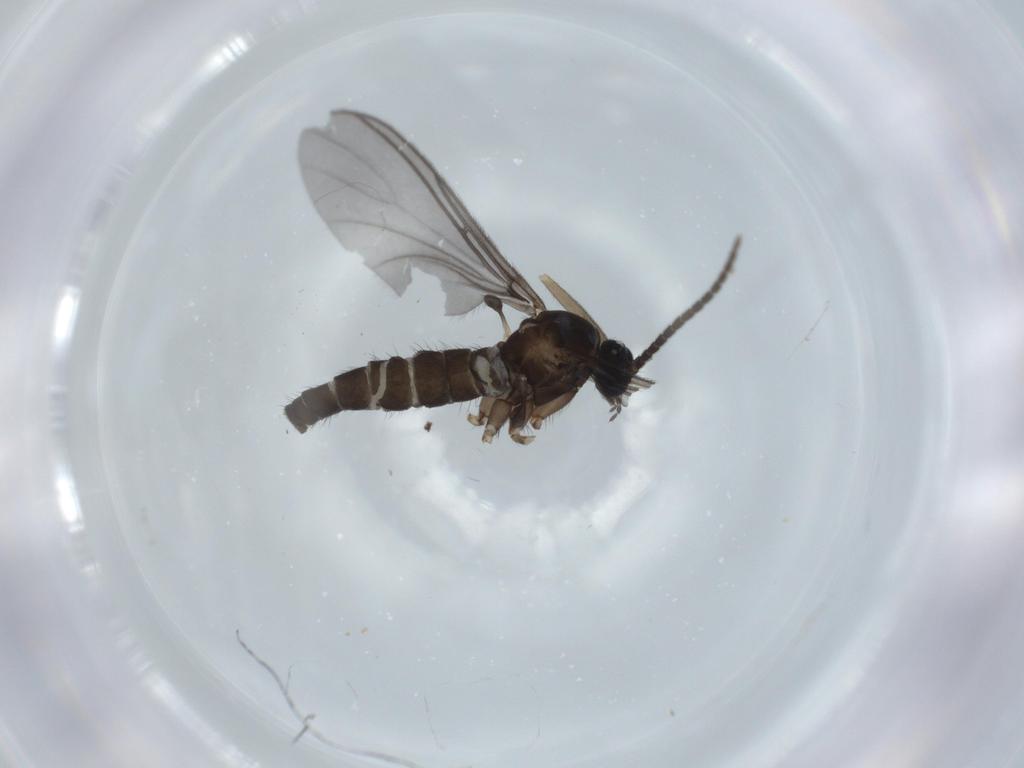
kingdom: Animalia
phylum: Arthropoda
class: Insecta
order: Diptera
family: Sciaridae
